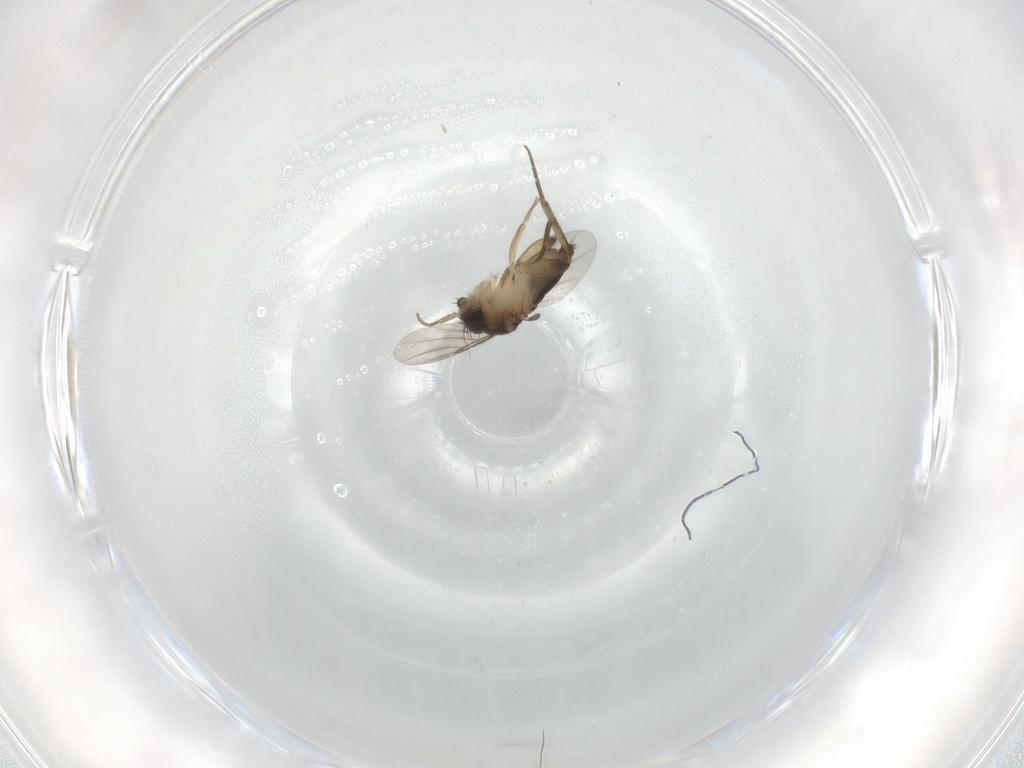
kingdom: Animalia
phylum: Arthropoda
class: Insecta
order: Diptera
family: Phoridae
